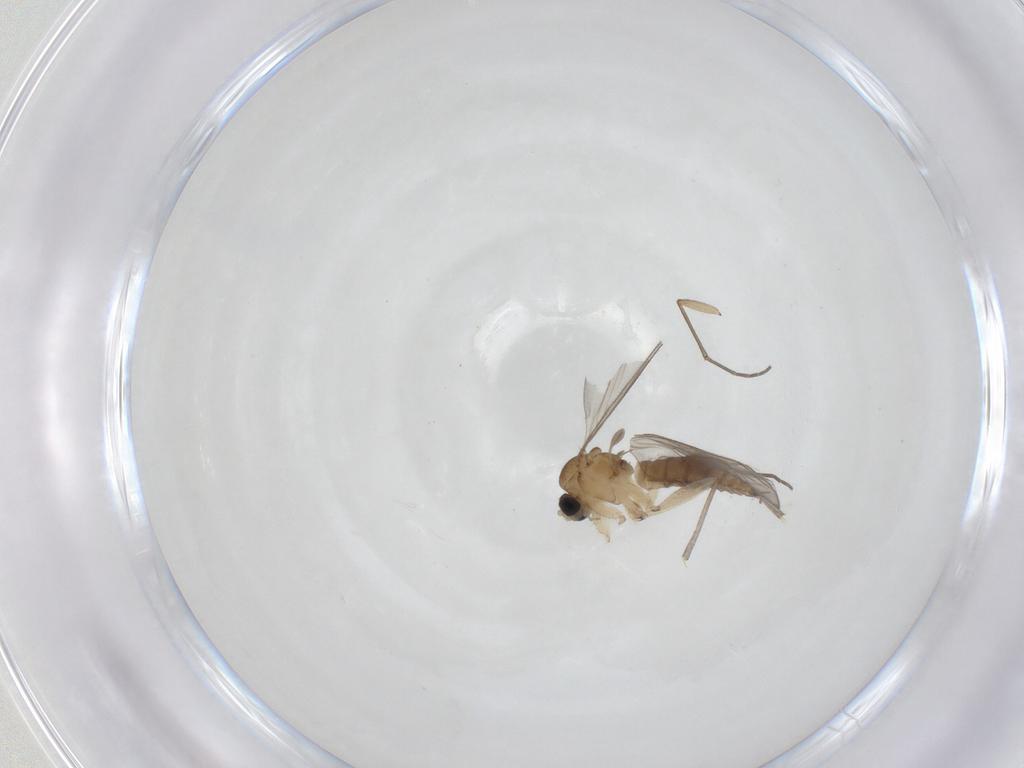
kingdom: Animalia
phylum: Arthropoda
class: Insecta
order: Diptera
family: Sciaridae
